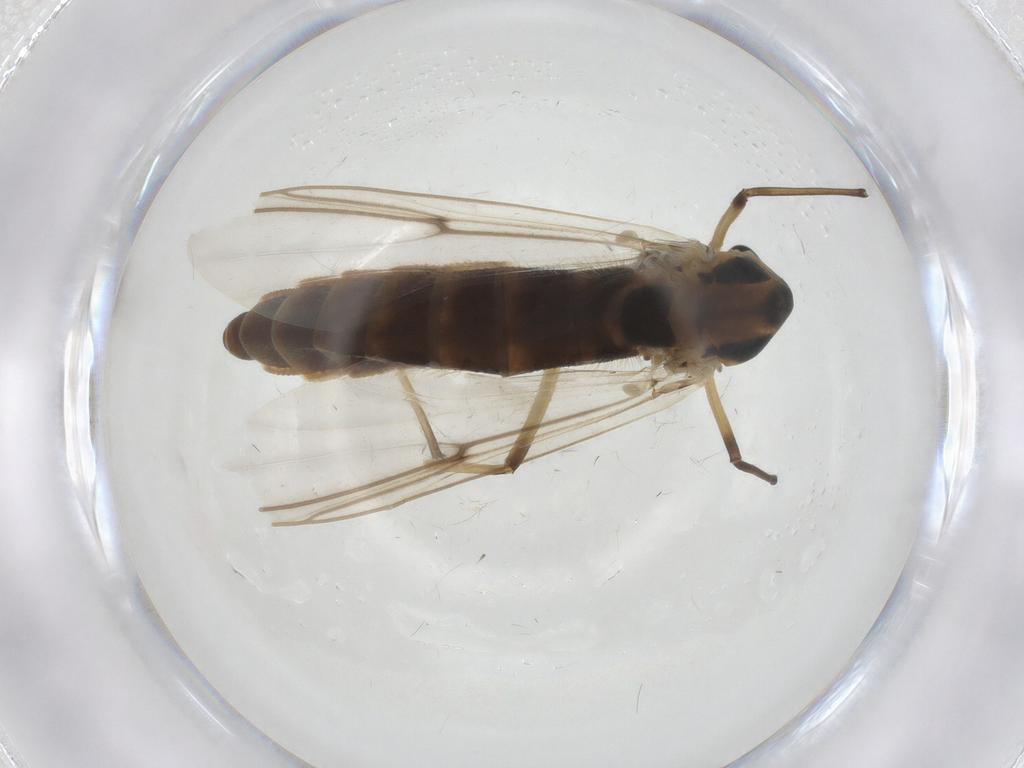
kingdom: Animalia
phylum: Arthropoda
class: Insecta
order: Diptera
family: Chironomidae
